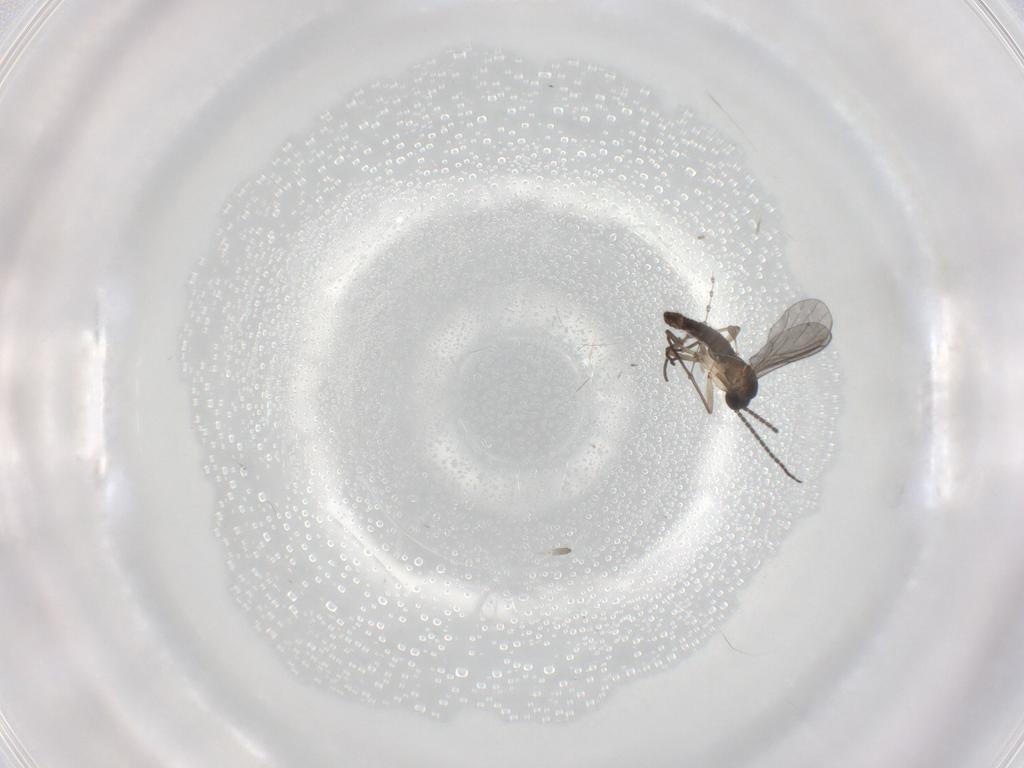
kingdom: Animalia
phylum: Arthropoda
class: Insecta
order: Diptera
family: Sciaridae
